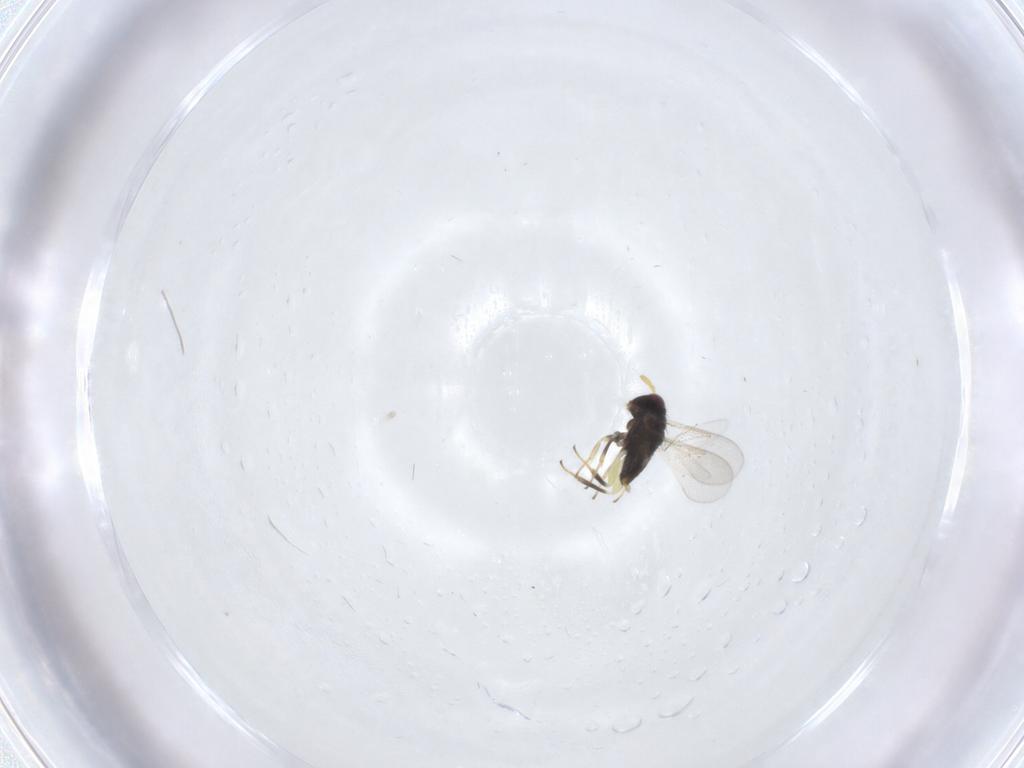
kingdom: Animalia
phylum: Arthropoda
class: Insecta
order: Hymenoptera
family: Aphelinidae
